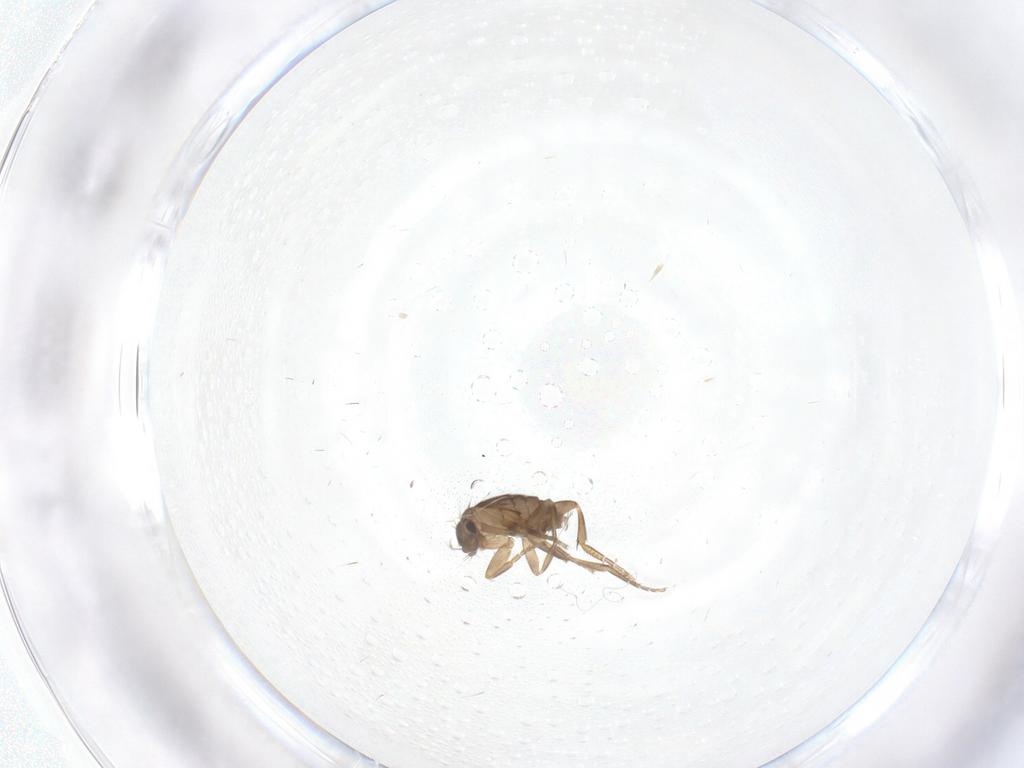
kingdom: Animalia
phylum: Arthropoda
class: Insecta
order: Diptera
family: Phoridae
